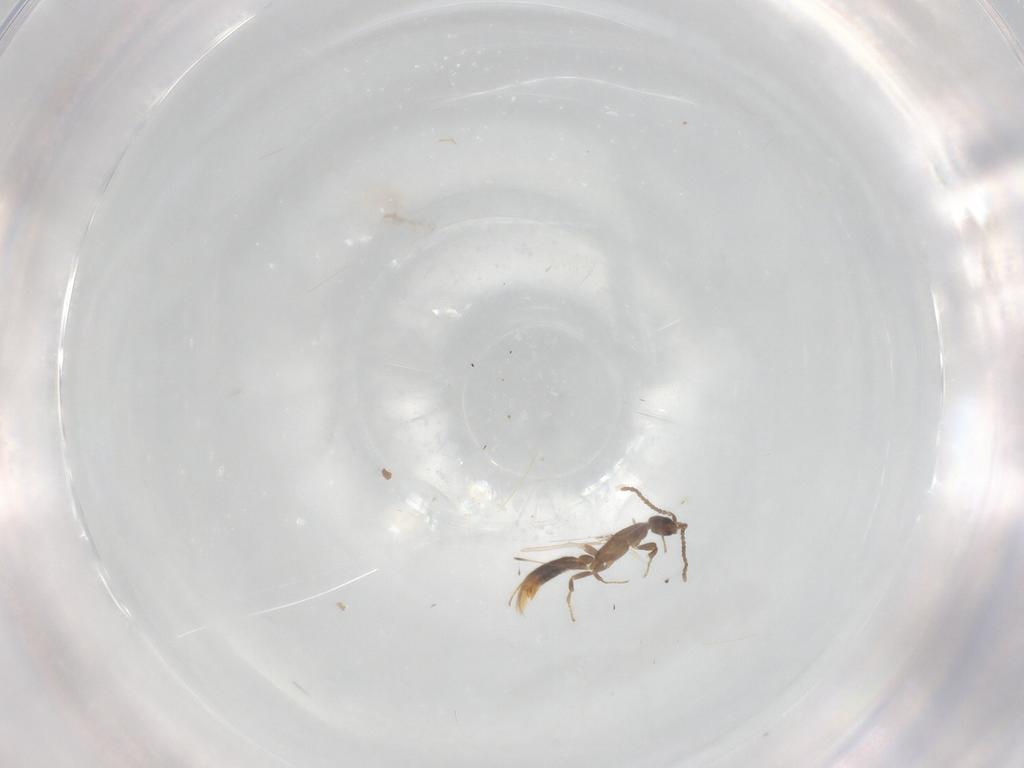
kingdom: Animalia
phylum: Arthropoda
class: Insecta
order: Hymenoptera
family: Formicidae
